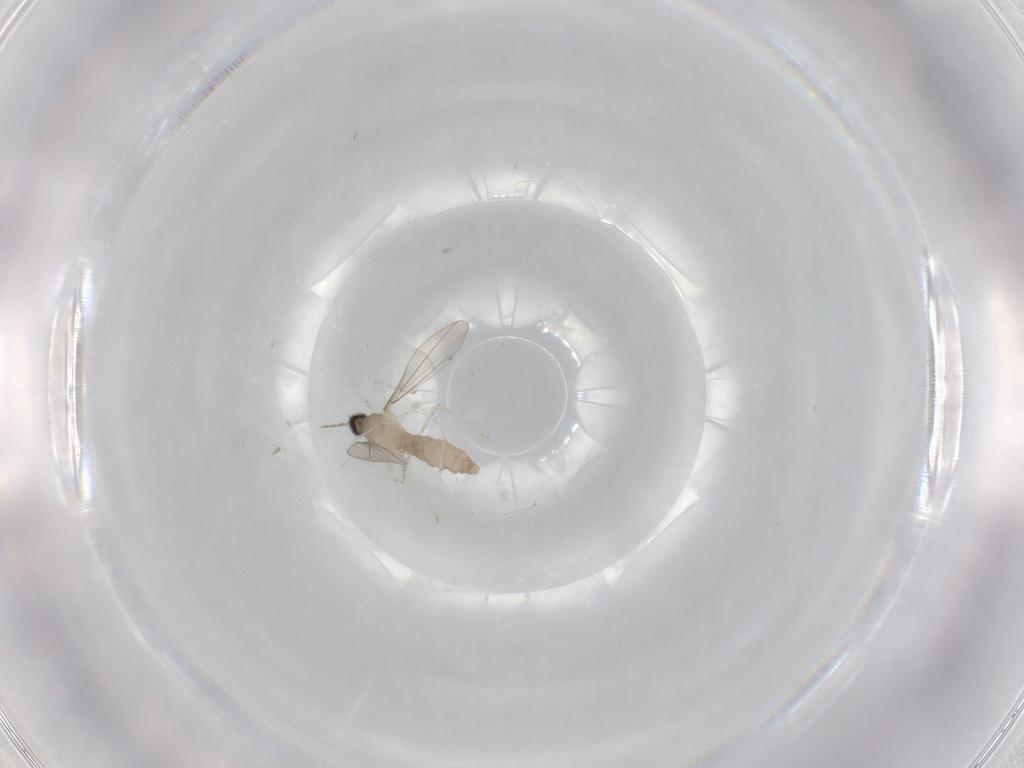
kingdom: Animalia
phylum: Arthropoda
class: Insecta
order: Diptera
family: Cecidomyiidae
